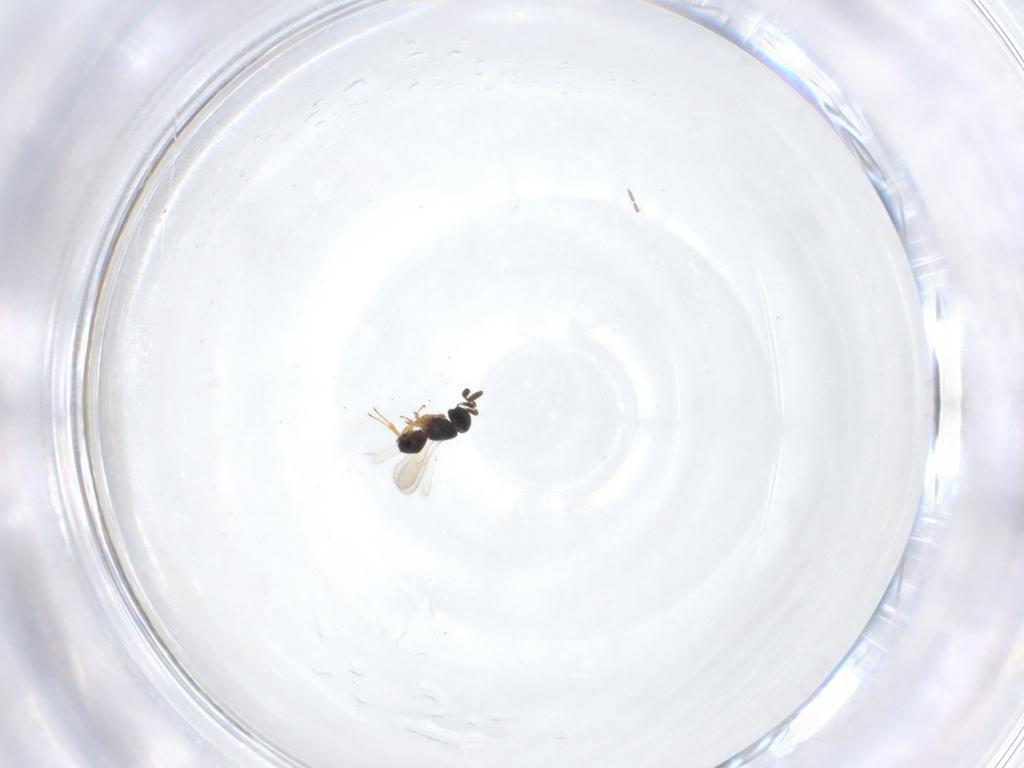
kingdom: Animalia
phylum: Arthropoda
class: Insecta
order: Hymenoptera
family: Scelionidae
